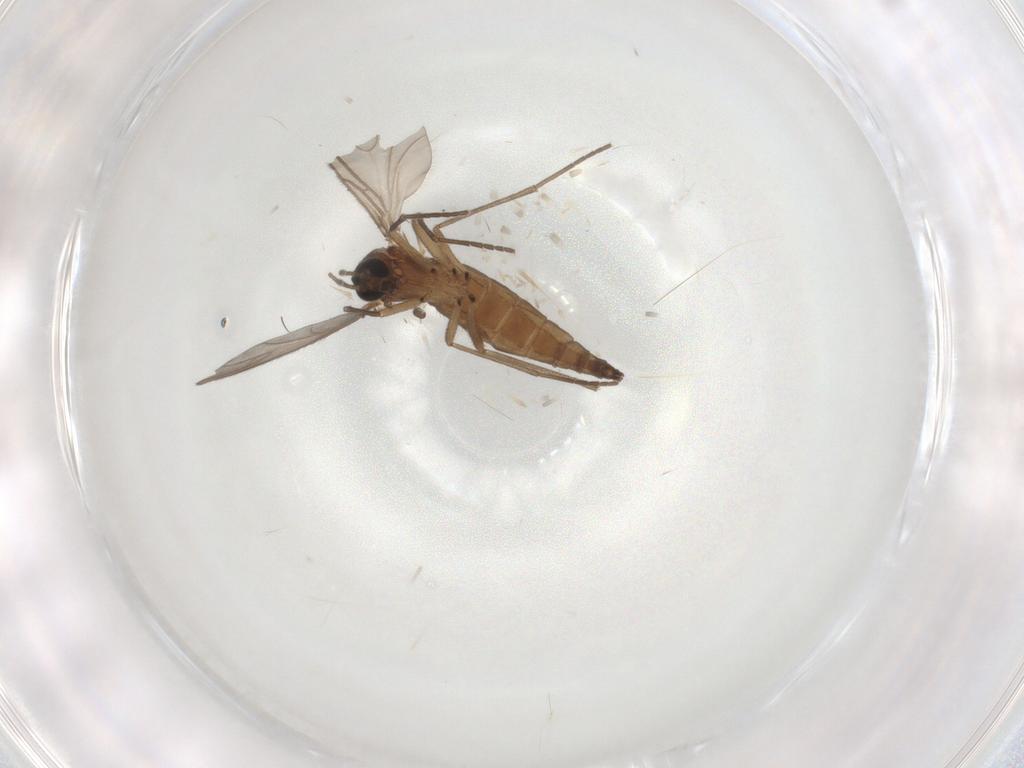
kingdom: Animalia
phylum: Arthropoda
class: Insecta
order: Diptera
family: Sciaridae
